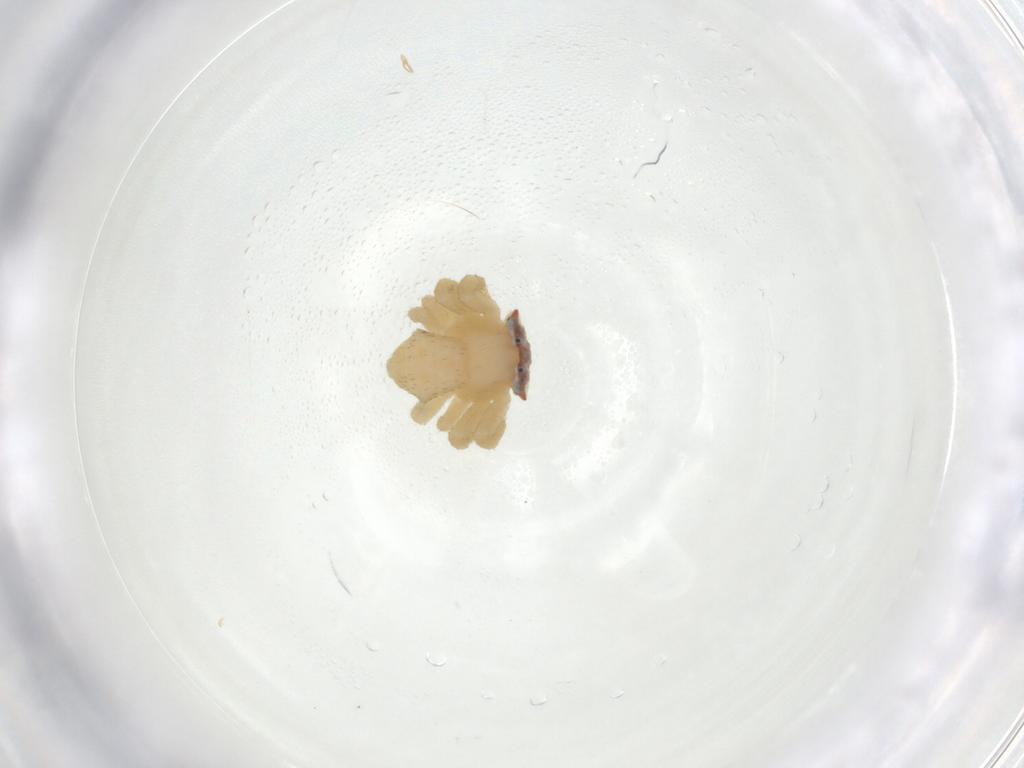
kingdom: Animalia
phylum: Arthropoda
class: Arachnida
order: Araneae
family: Thomisidae
